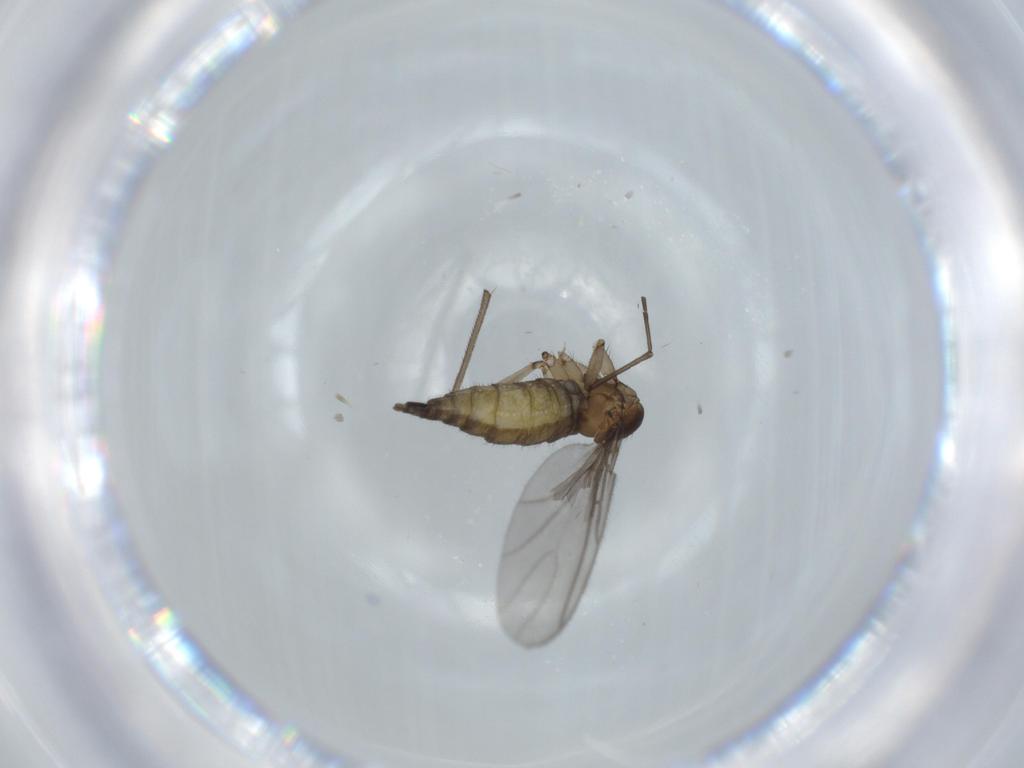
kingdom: Animalia
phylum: Arthropoda
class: Insecta
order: Diptera
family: Sciaridae
